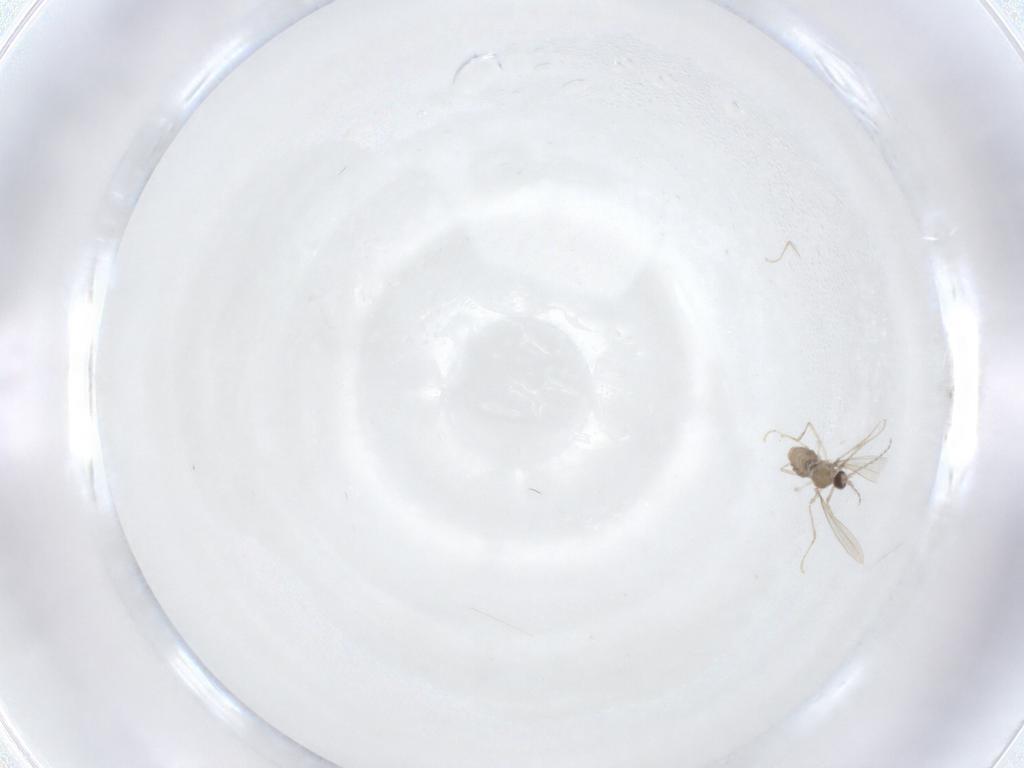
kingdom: Animalia
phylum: Arthropoda
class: Insecta
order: Diptera
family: Cecidomyiidae
